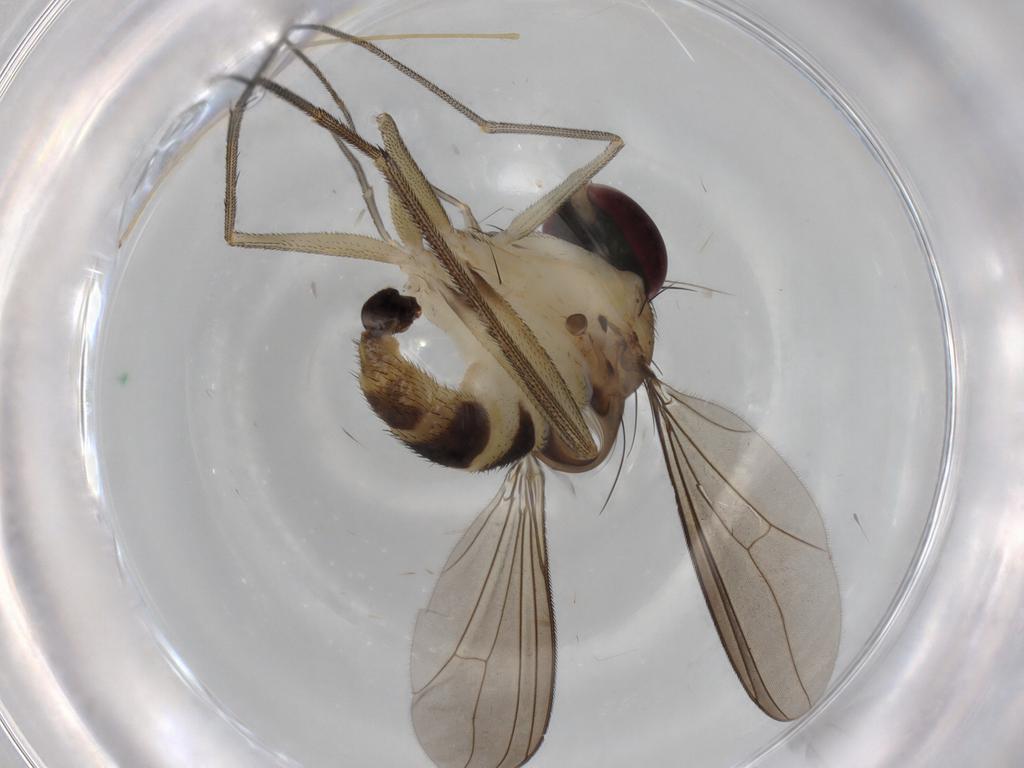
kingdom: Animalia
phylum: Arthropoda
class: Insecta
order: Diptera
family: Dolichopodidae
